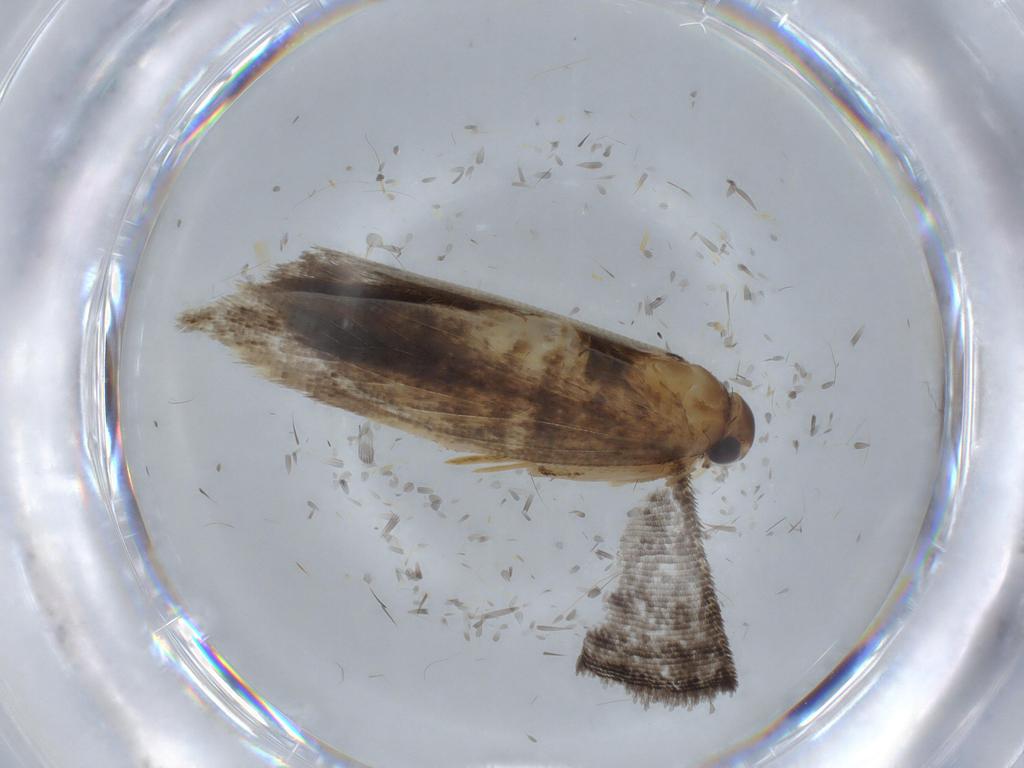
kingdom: Animalia
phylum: Arthropoda
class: Insecta
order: Lepidoptera
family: Gelechiidae
